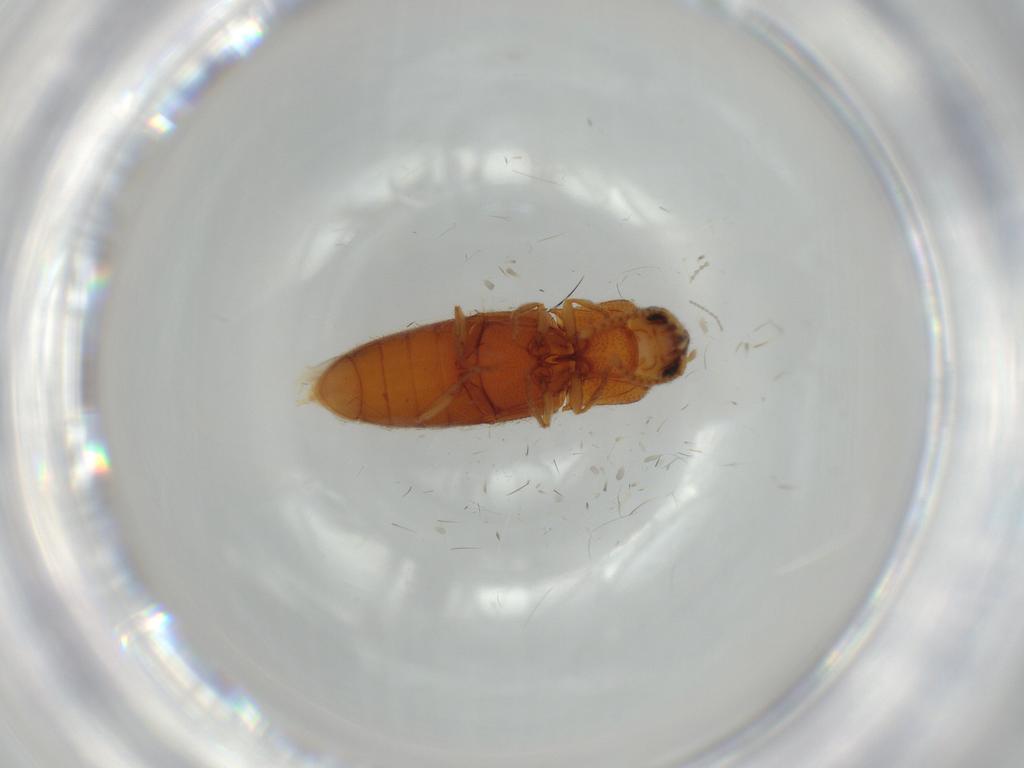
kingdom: Animalia
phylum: Arthropoda
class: Insecta
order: Coleoptera
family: Elateridae
